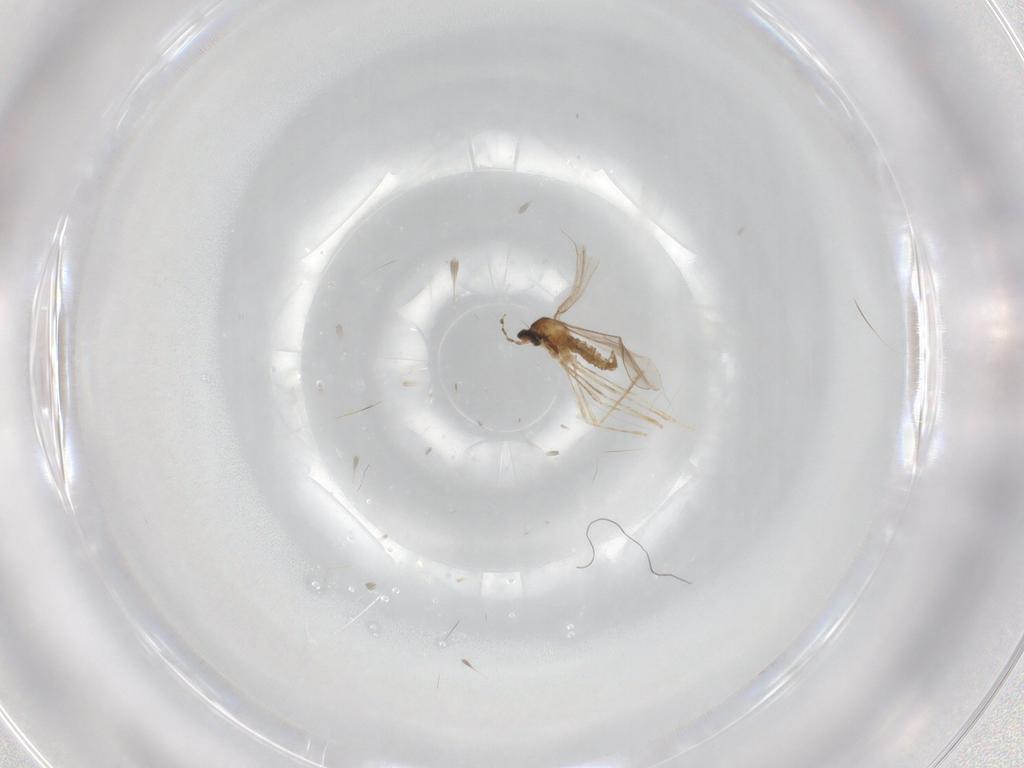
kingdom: Animalia
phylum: Arthropoda
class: Insecta
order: Diptera
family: Cecidomyiidae
